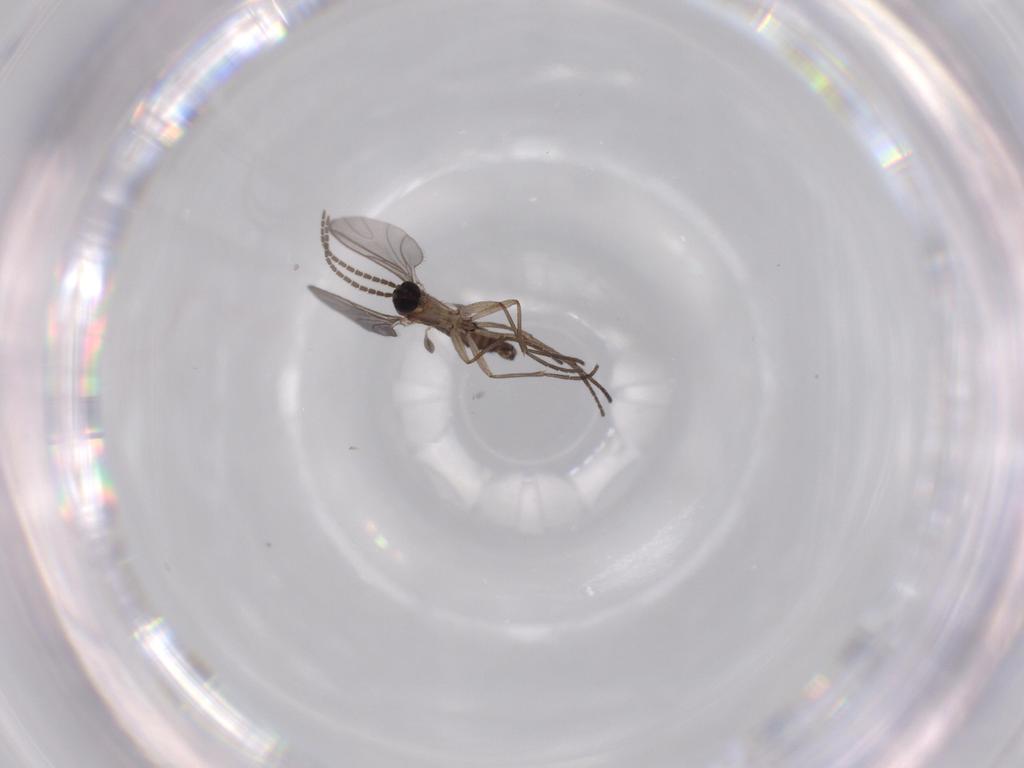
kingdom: Animalia
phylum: Arthropoda
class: Insecta
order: Diptera
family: Sciaridae
